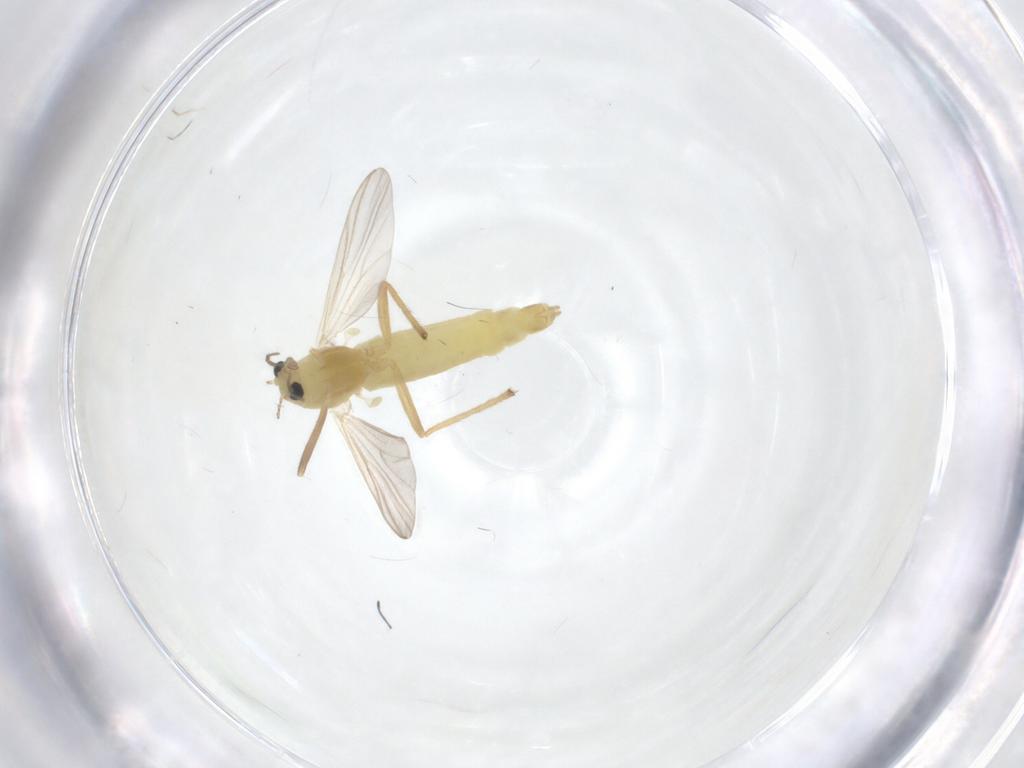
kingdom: Animalia
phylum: Arthropoda
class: Insecta
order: Diptera
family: Chironomidae
